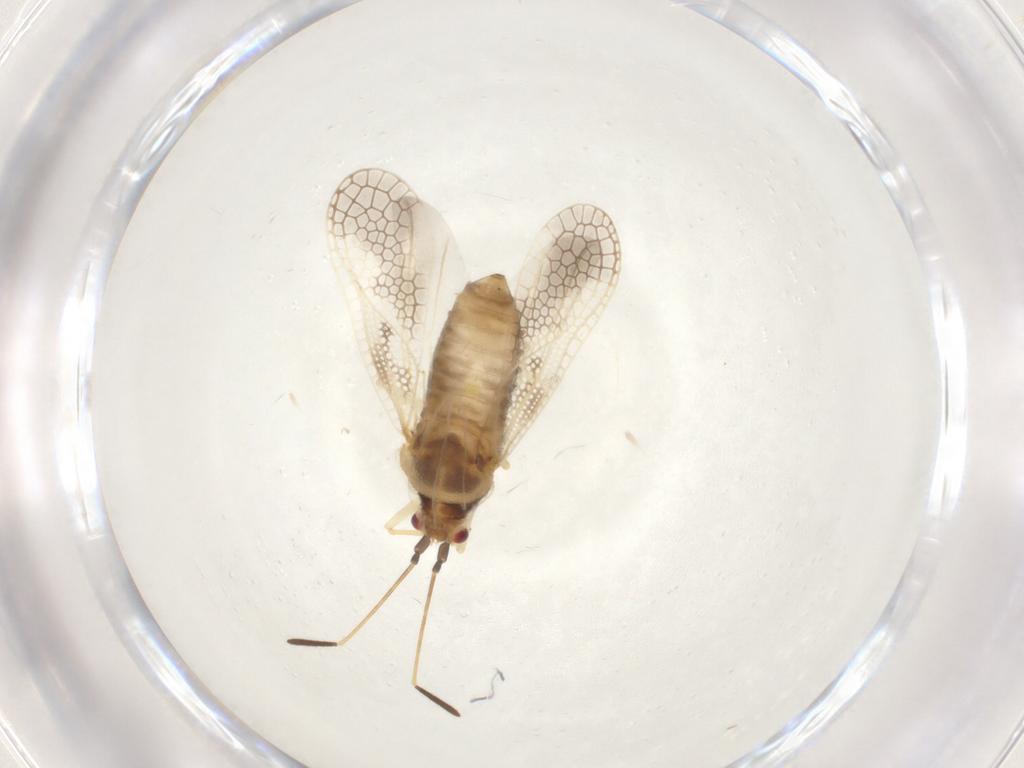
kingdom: Animalia
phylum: Arthropoda
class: Insecta
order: Hemiptera
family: Tingidae
